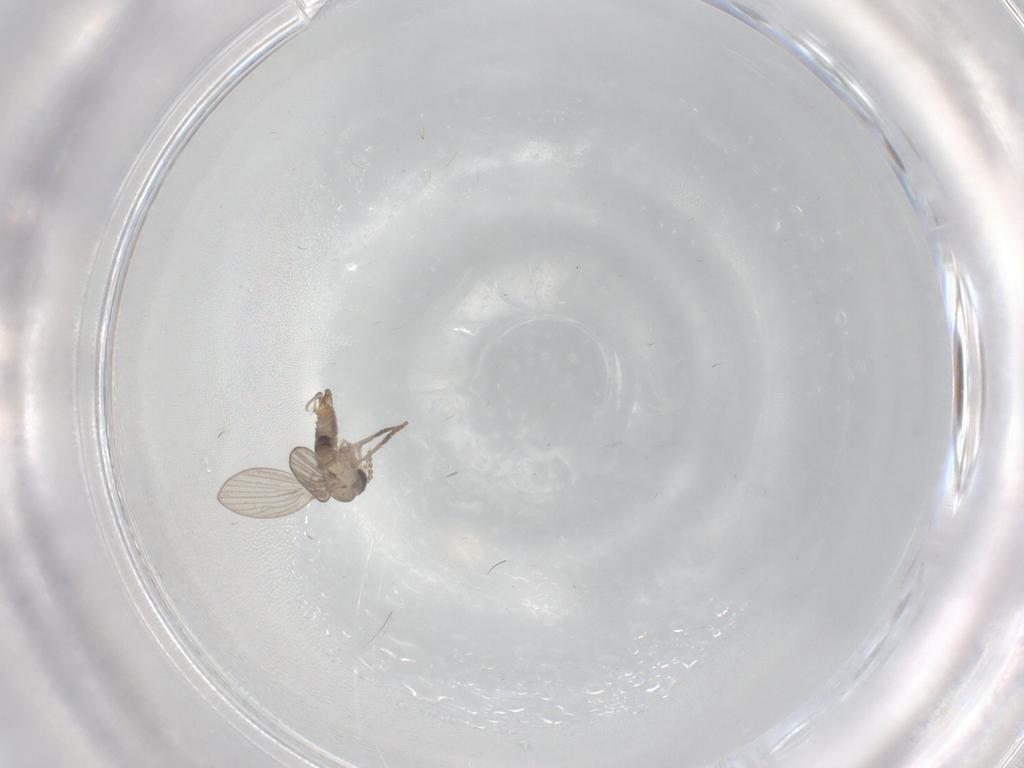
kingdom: Animalia
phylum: Arthropoda
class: Insecta
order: Diptera
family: Psychodidae
